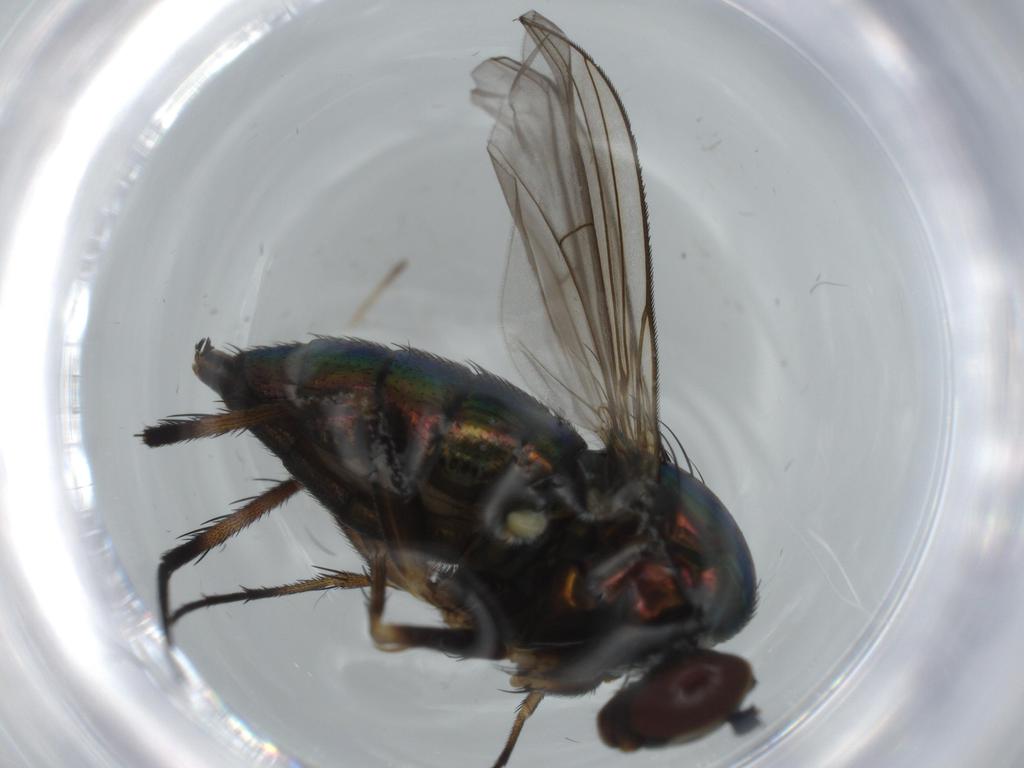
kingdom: Animalia
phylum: Arthropoda
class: Insecta
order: Diptera
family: Dolichopodidae
